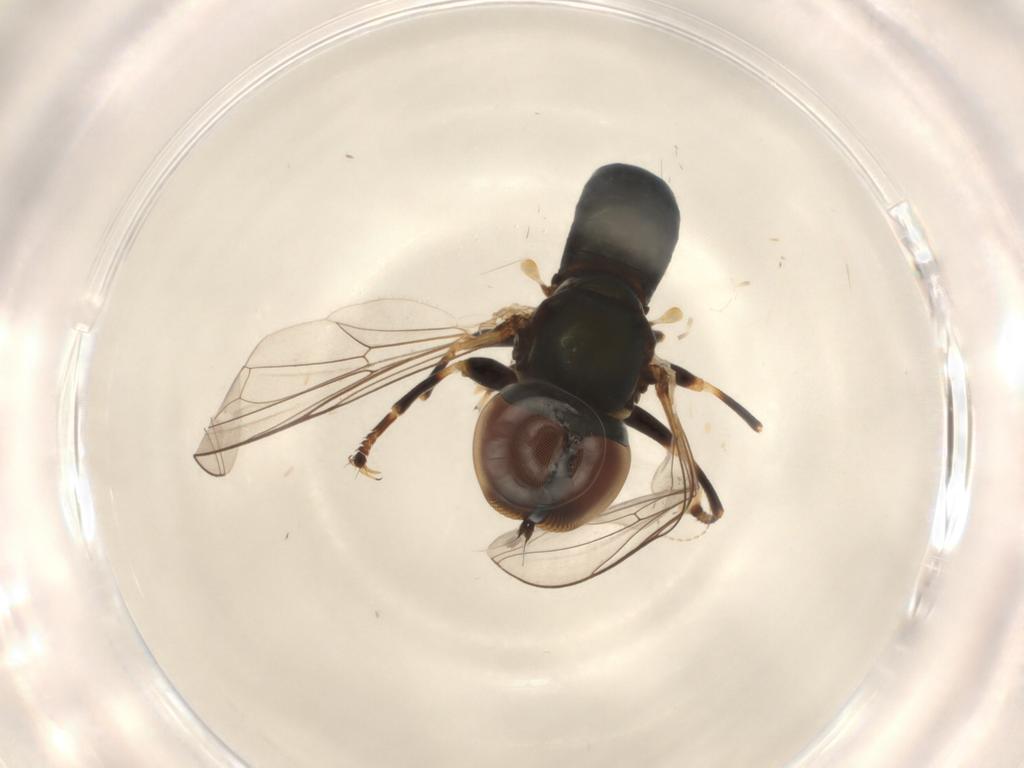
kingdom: Animalia
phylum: Arthropoda
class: Insecta
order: Diptera
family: Pipunculidae
